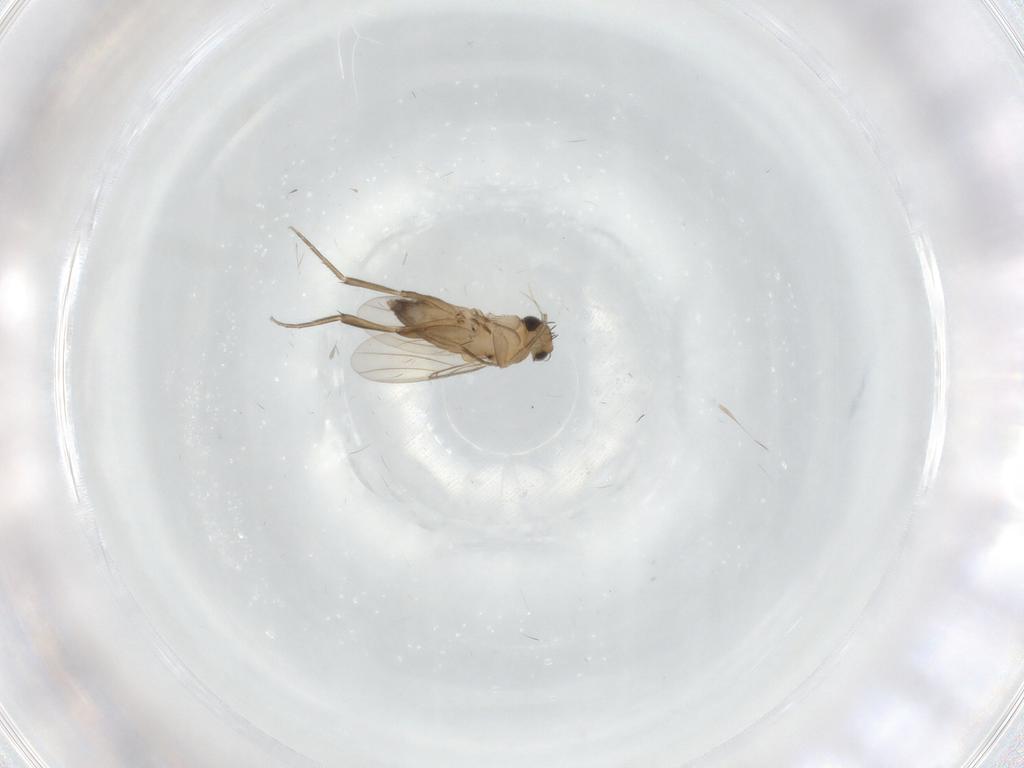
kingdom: Animalia
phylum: Arthropoda
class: Insecta
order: Diptera
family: Phoridae
